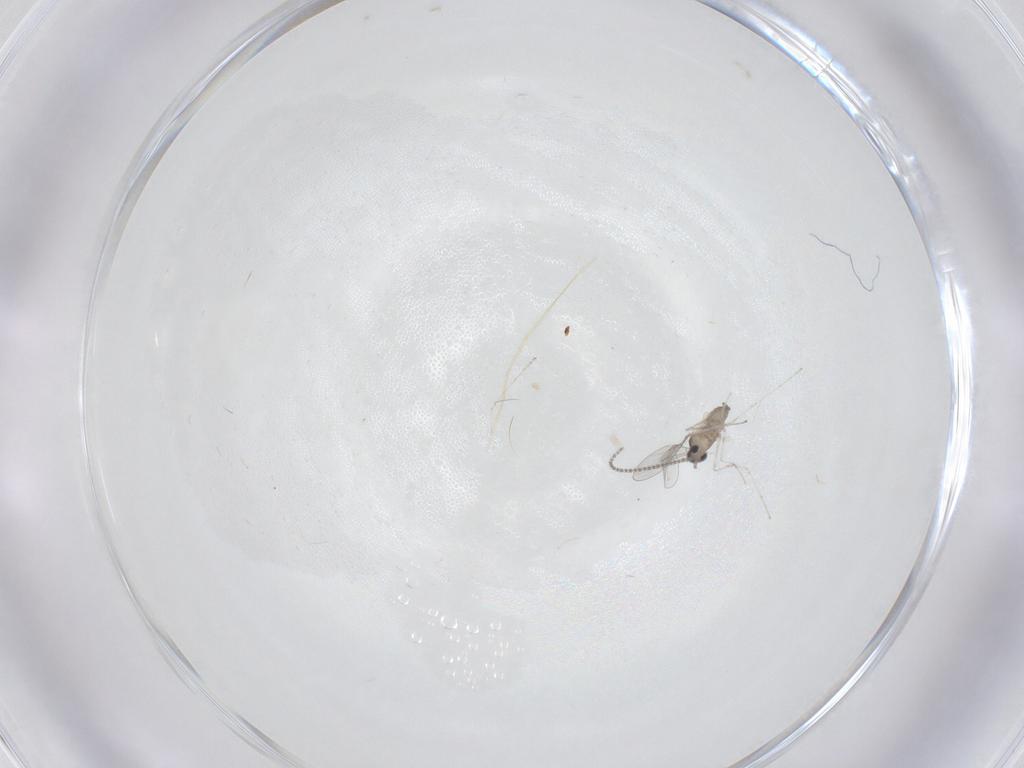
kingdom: Animalia
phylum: Arthropoda
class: Insecta
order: Diptera
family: Cecidomyiidae
